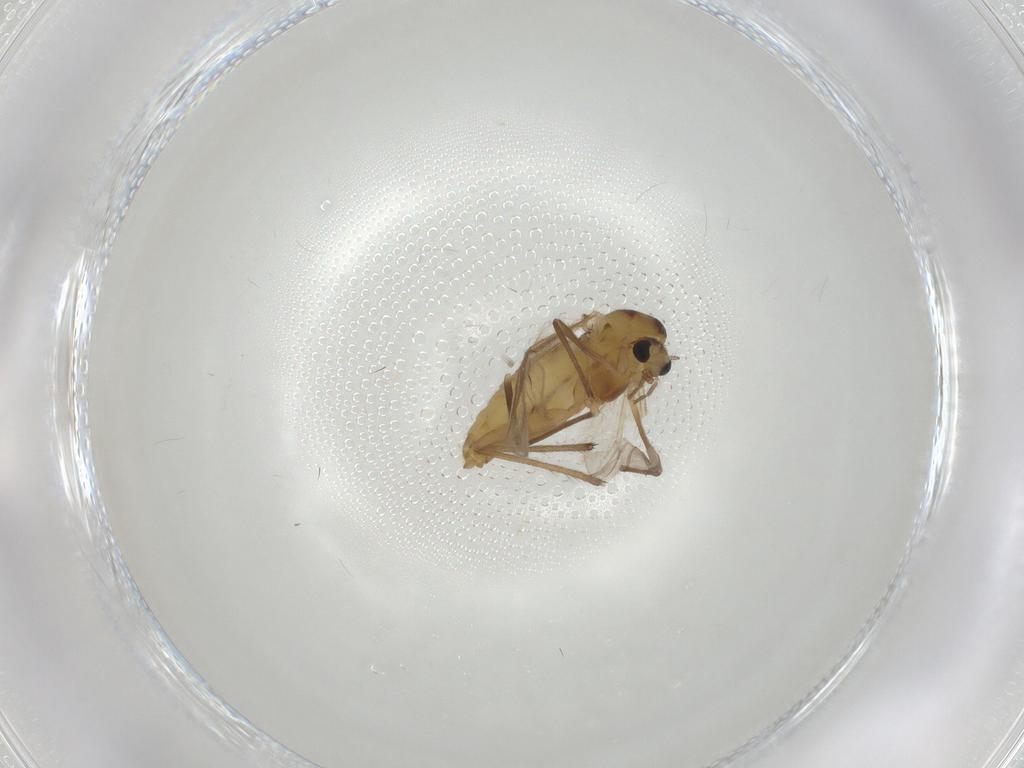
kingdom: Animalia
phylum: Arthropoda
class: Insecta
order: Diptera
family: Chironomidae
